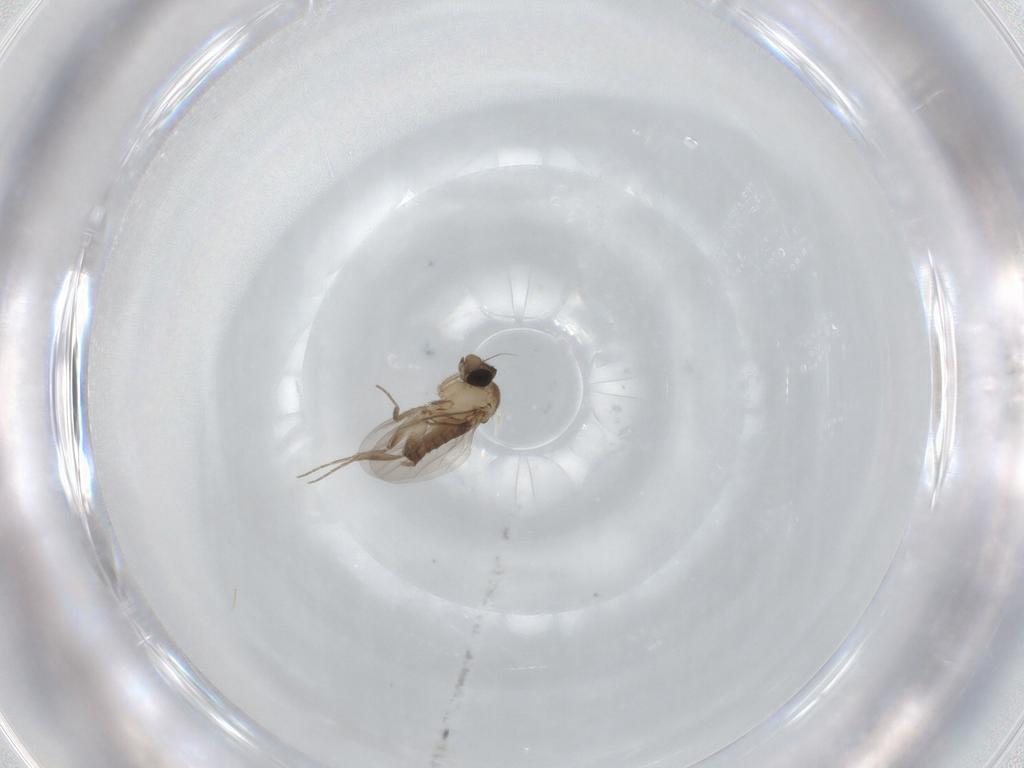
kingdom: Animalia
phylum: Arthropoda
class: Insecta
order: Diptera
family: Phoridae
